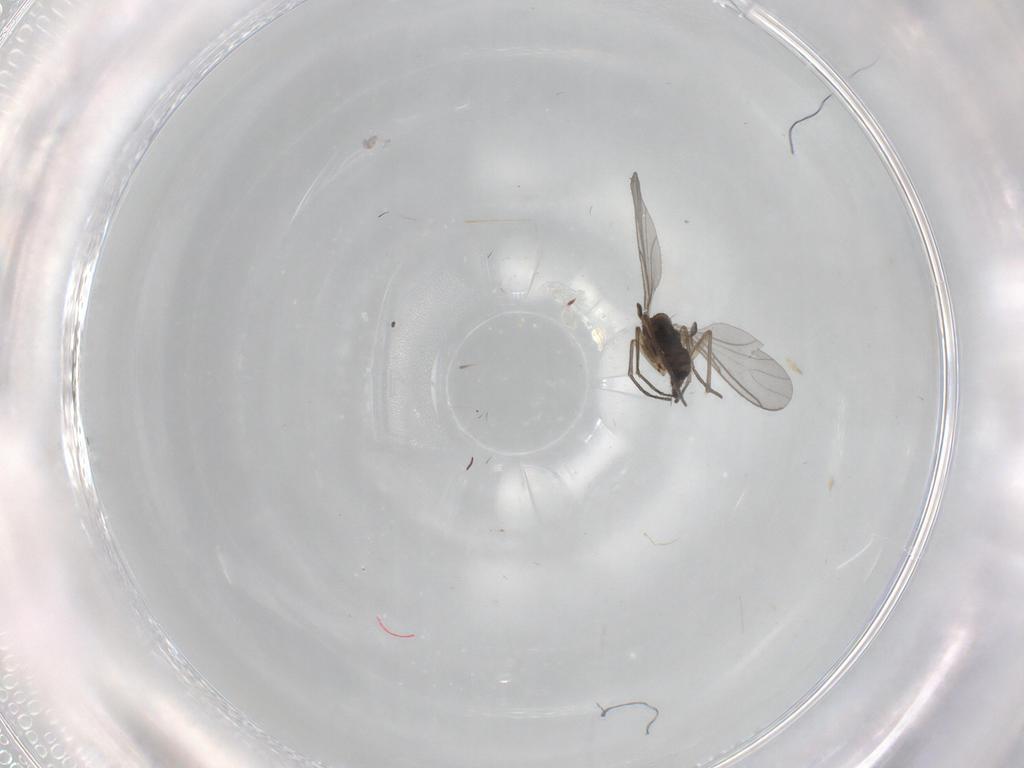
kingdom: Animalia
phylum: Arthropoda
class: Insecta
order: Diptera
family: Sciaridae
